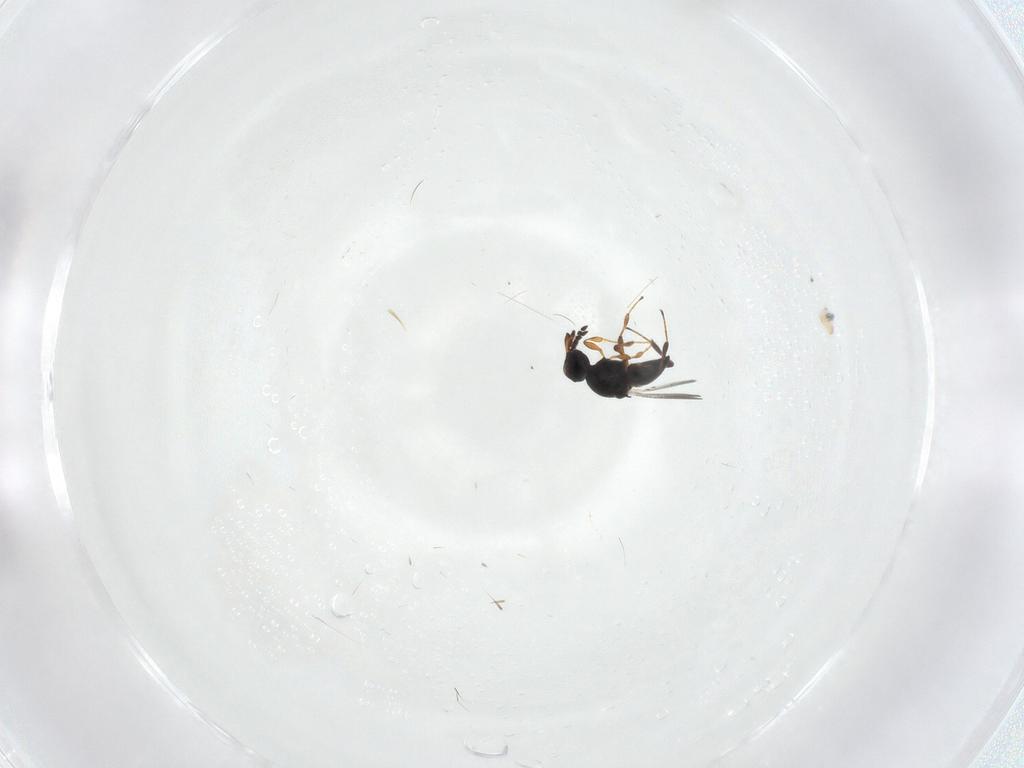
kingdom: Animalia
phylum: Arthropoda
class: Insecta
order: Hymenoptera
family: Platygastridae
